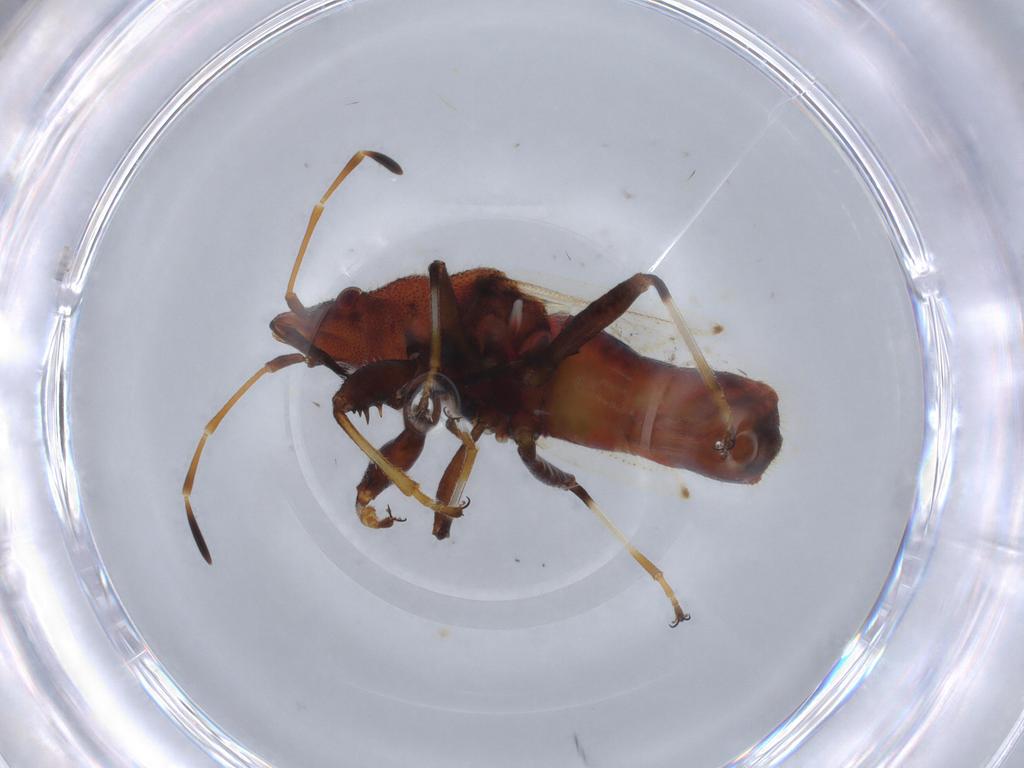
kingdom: Animalia
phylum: Arthropoda
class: Insecta
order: Hemiptera
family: Oxycarenidae
